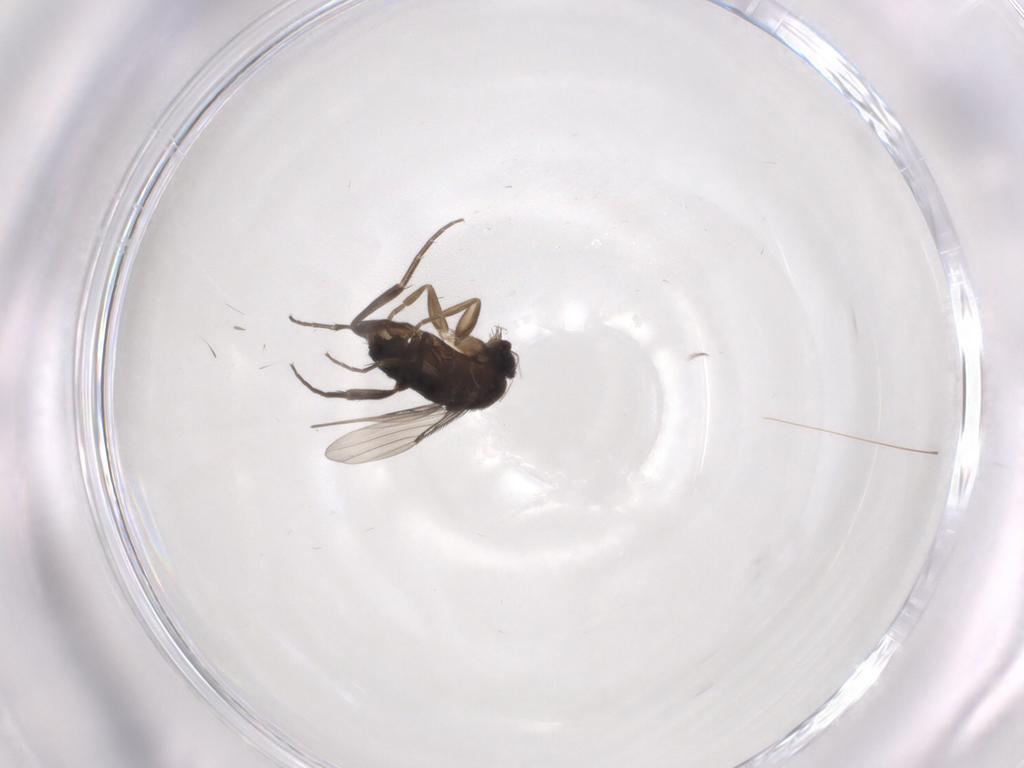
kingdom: Animalia
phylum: Arthropoda
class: Insecta
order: Diptera
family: Phoridae
